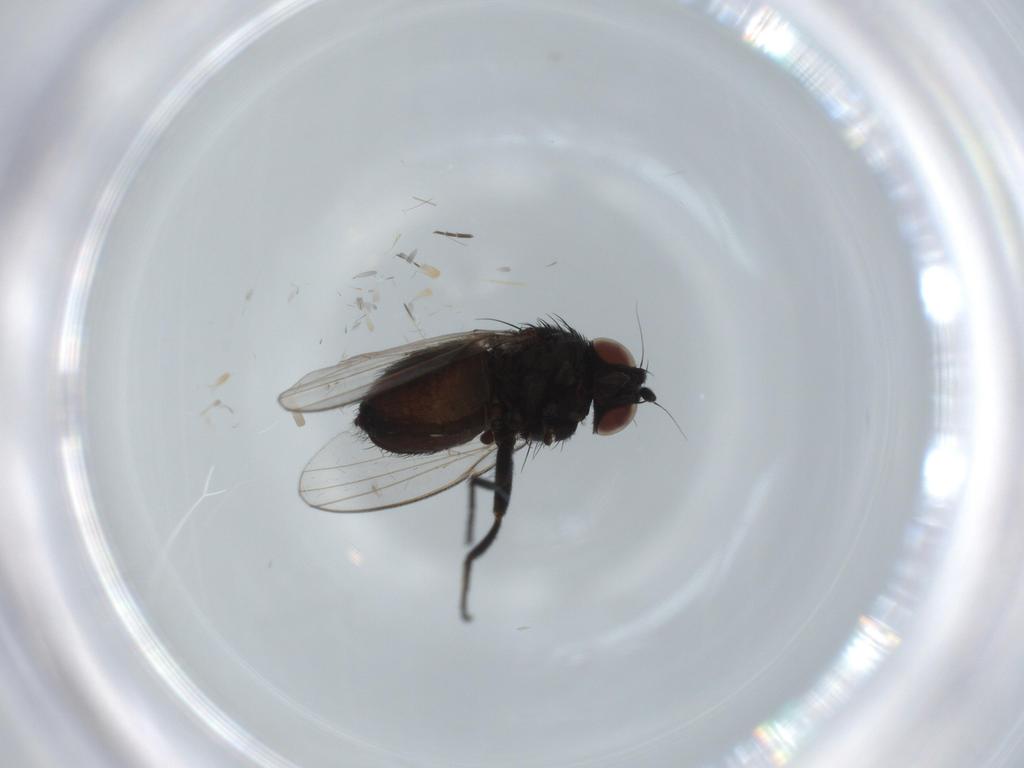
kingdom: Animalia
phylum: Arthropoda
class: Insecta
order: Diptera
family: Milichiidae
